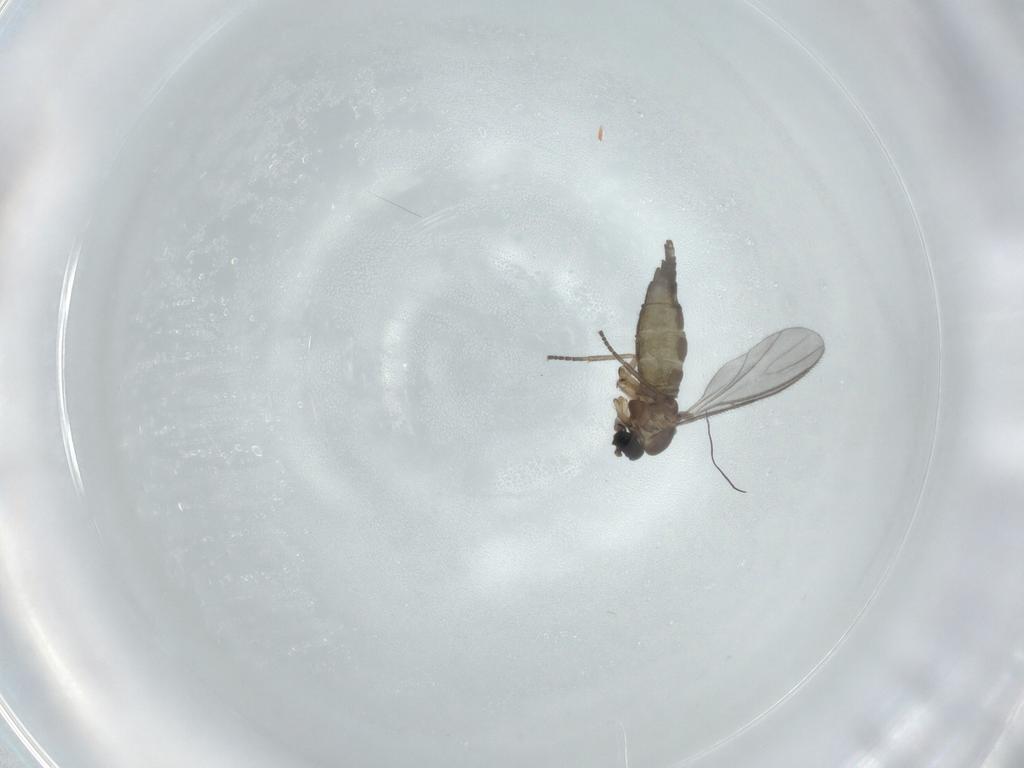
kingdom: Animalia
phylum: Arthropoda
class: Insecta
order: Diptera
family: Sciaridae
